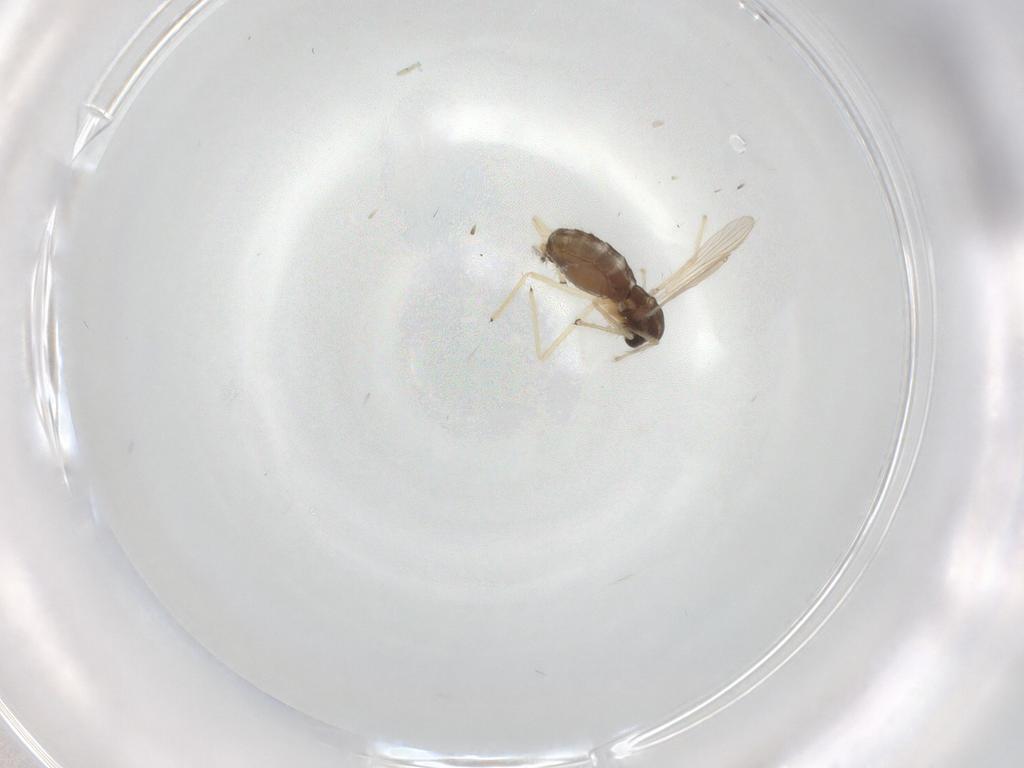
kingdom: Animalia
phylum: Arthropoda
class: Insecta
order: Diptera
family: Chironomidae
